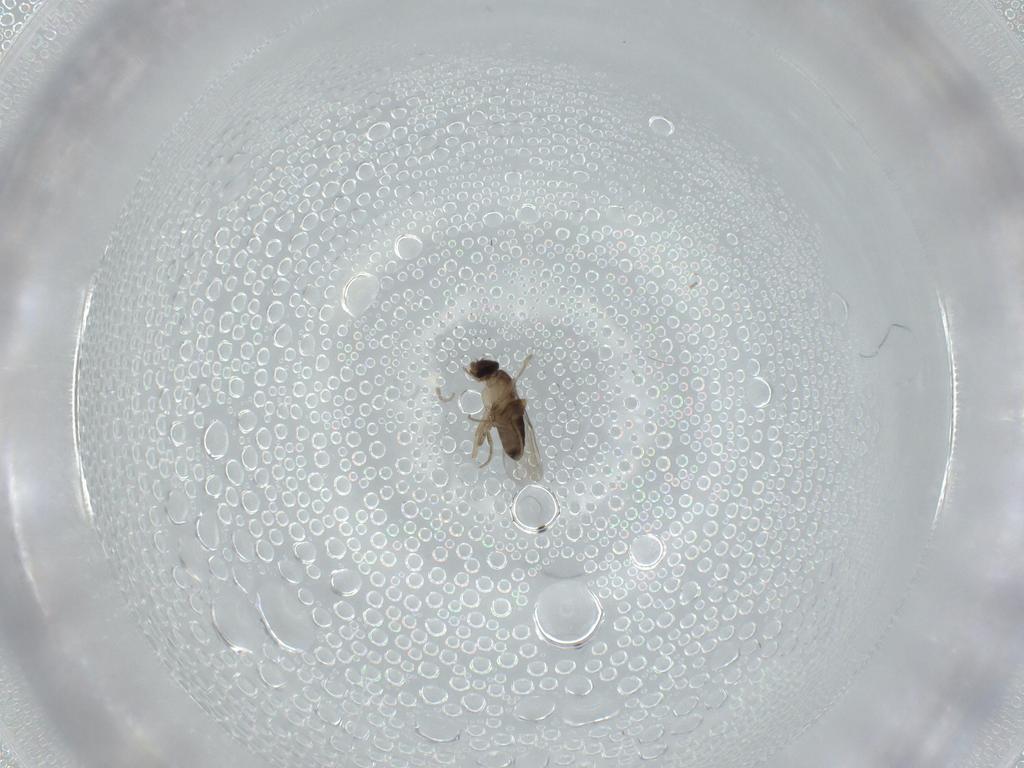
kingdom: Animalia
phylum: Arthropoda
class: Insecta
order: Diptera
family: Phoridae
